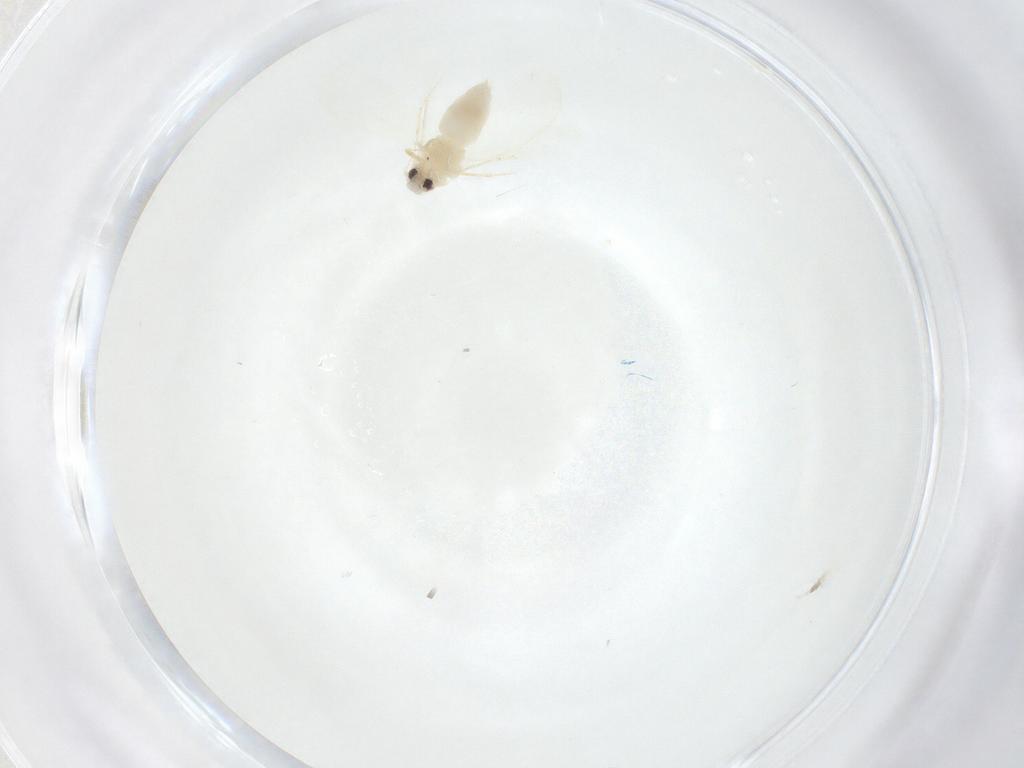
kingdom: Animalia
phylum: Arthropoda
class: Insecta
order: Hemiptera
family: Aleyrodidae
